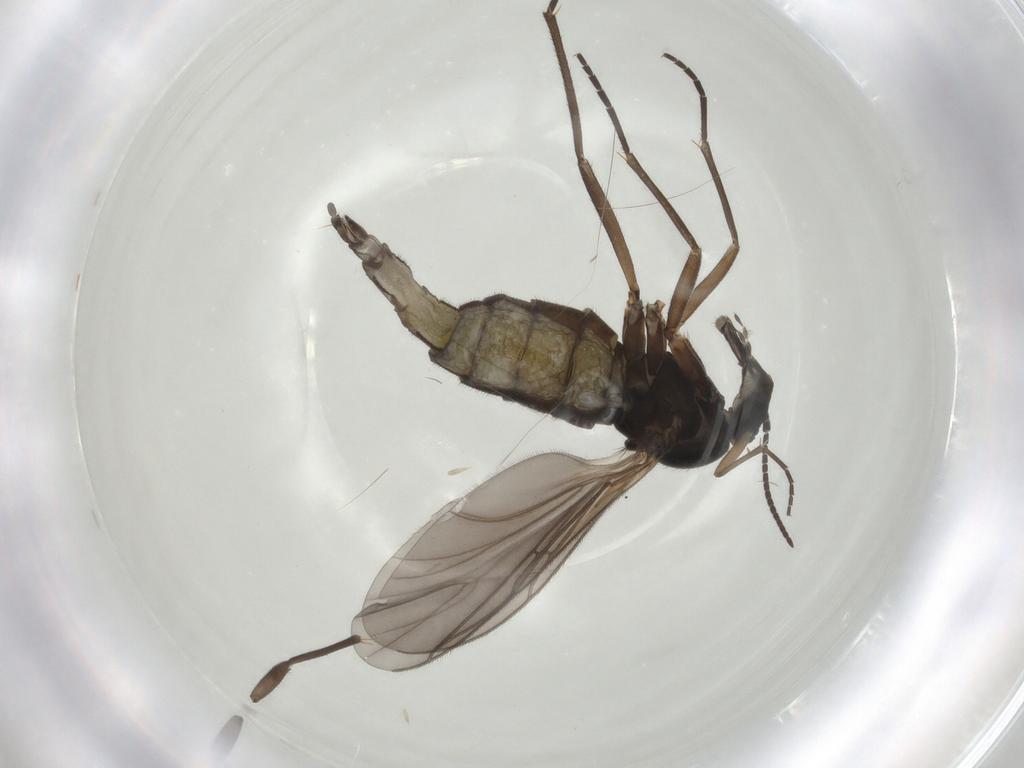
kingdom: Animalia
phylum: Arthropoda
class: Insecta
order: Diptera
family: Sciaridae
